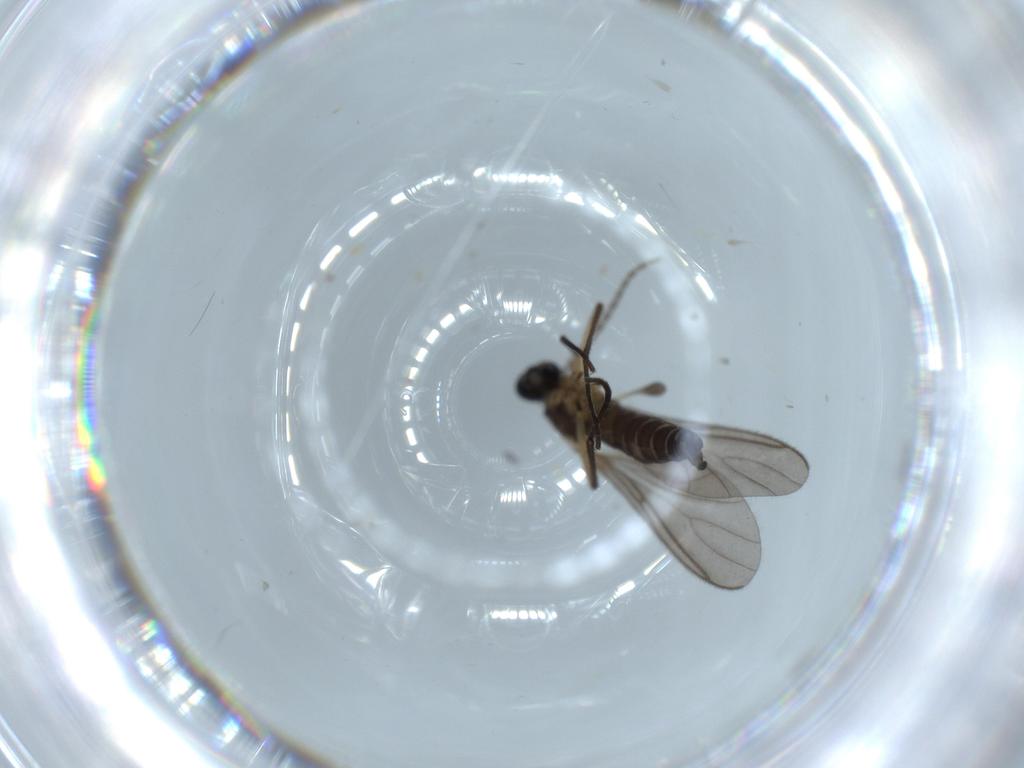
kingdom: Animalia
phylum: Arthropoda
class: Insecta
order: Diptera
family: Sciaridae
